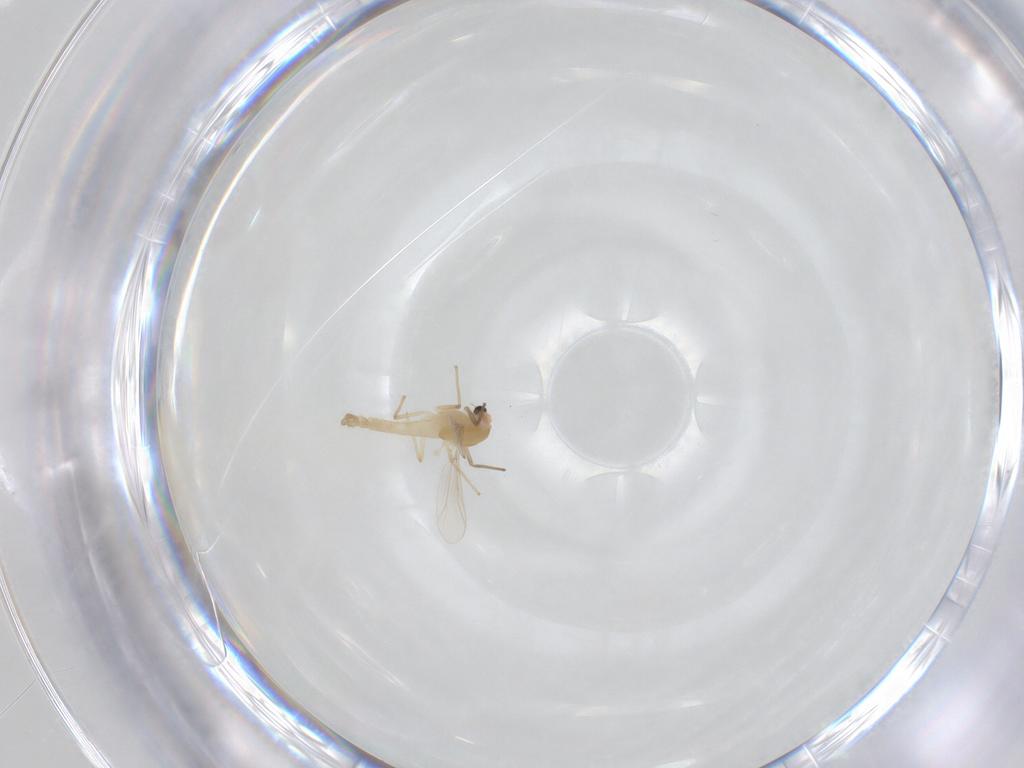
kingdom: Animalia
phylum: Arthropoda
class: Insecta
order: Diptera
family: Chironomidae
